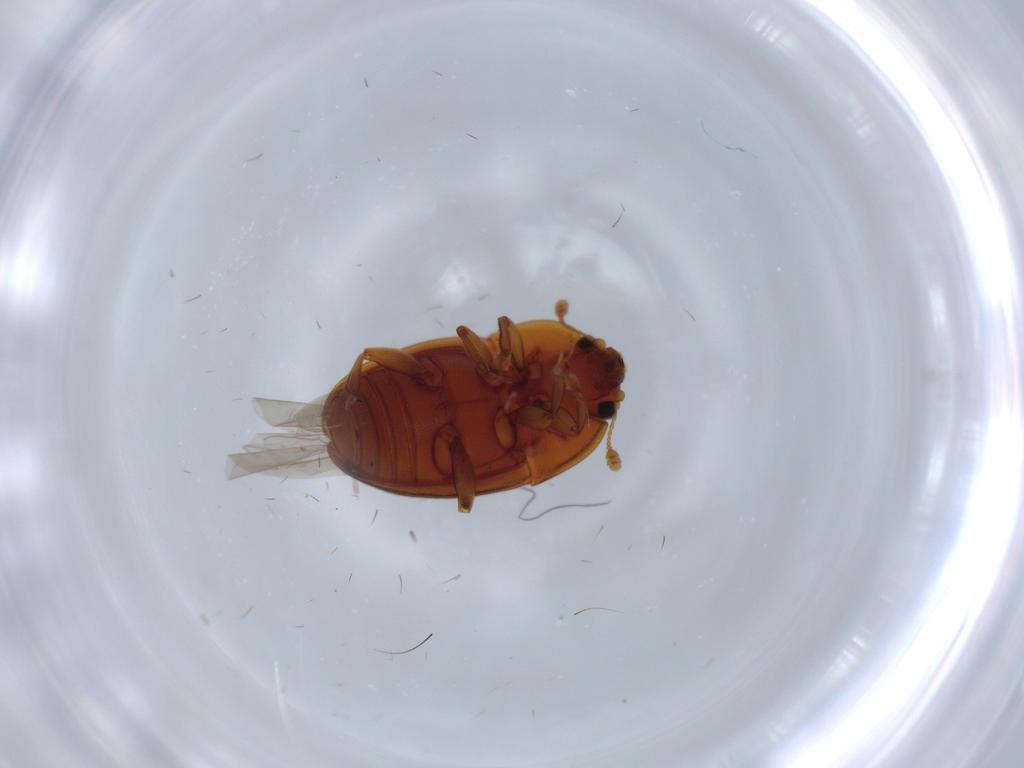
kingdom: Animalia
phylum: Arthropoda
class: Insecta
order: Coleoptera
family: Nitidulidae
